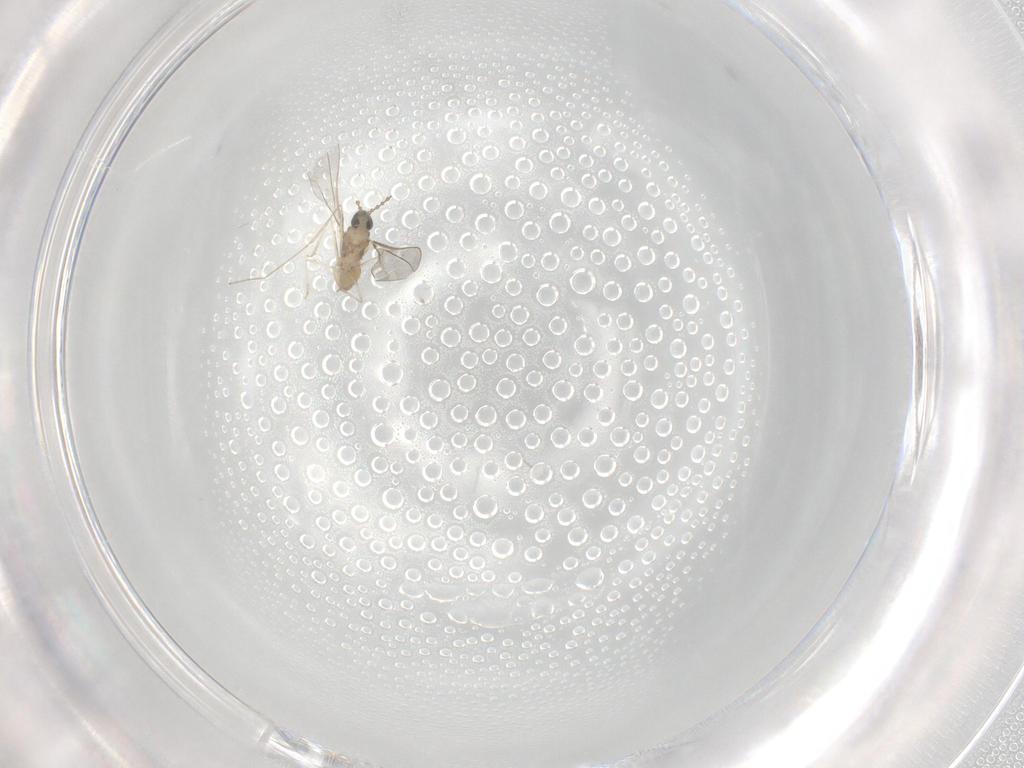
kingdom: Animalia
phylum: Arthropoda
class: Insecta
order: Diptera
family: Cecidomyiidae
